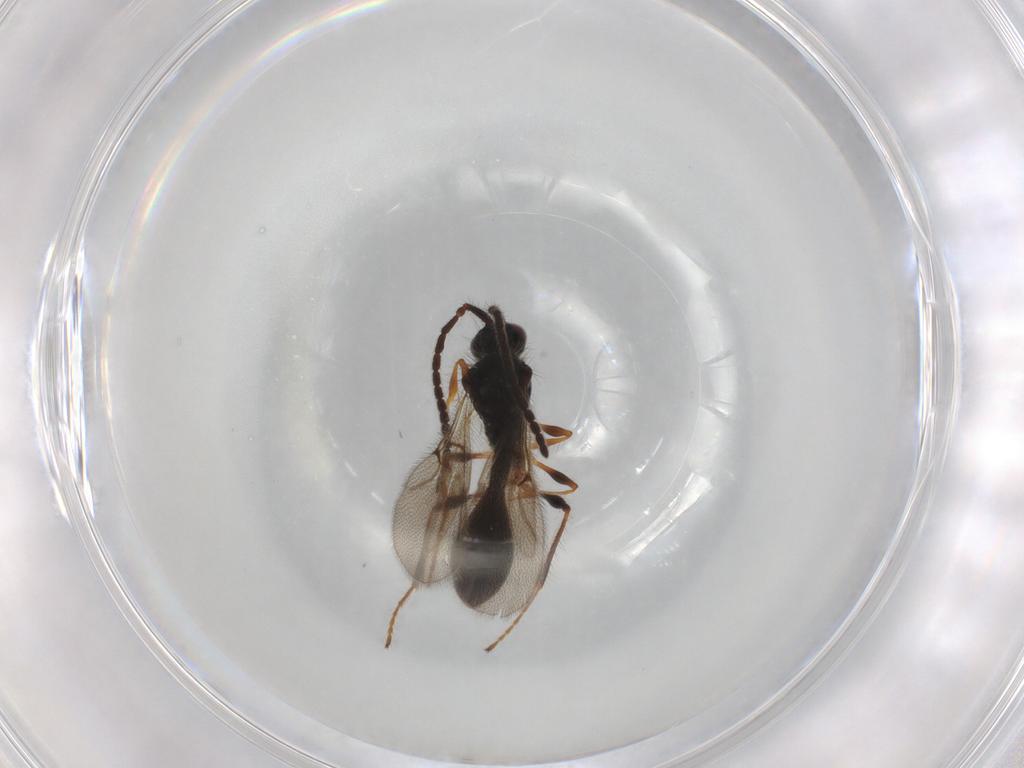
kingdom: Animalia
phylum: Arthropoda
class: Insecta
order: Hymenoptera
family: Diapriidae
